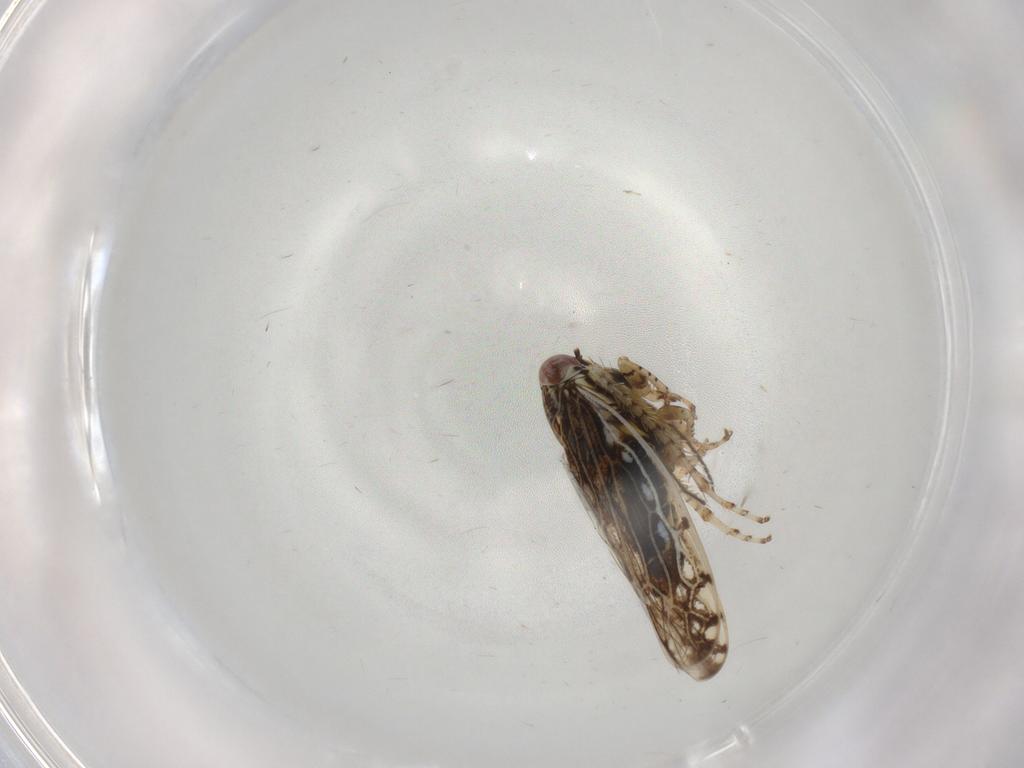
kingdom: Animalia
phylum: Arthropoda
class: Insecta
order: Hemiptera
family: Cicadellidae
